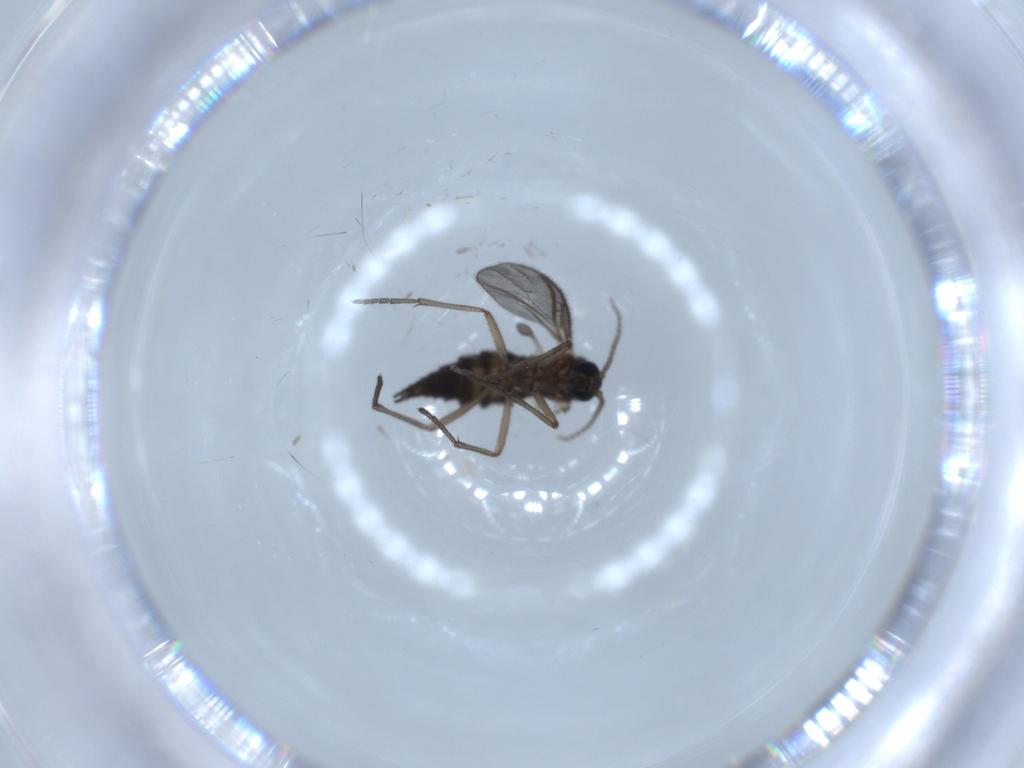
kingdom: Animalia
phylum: Arthropoda
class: Insecta
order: Diptera
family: Sciaridae
